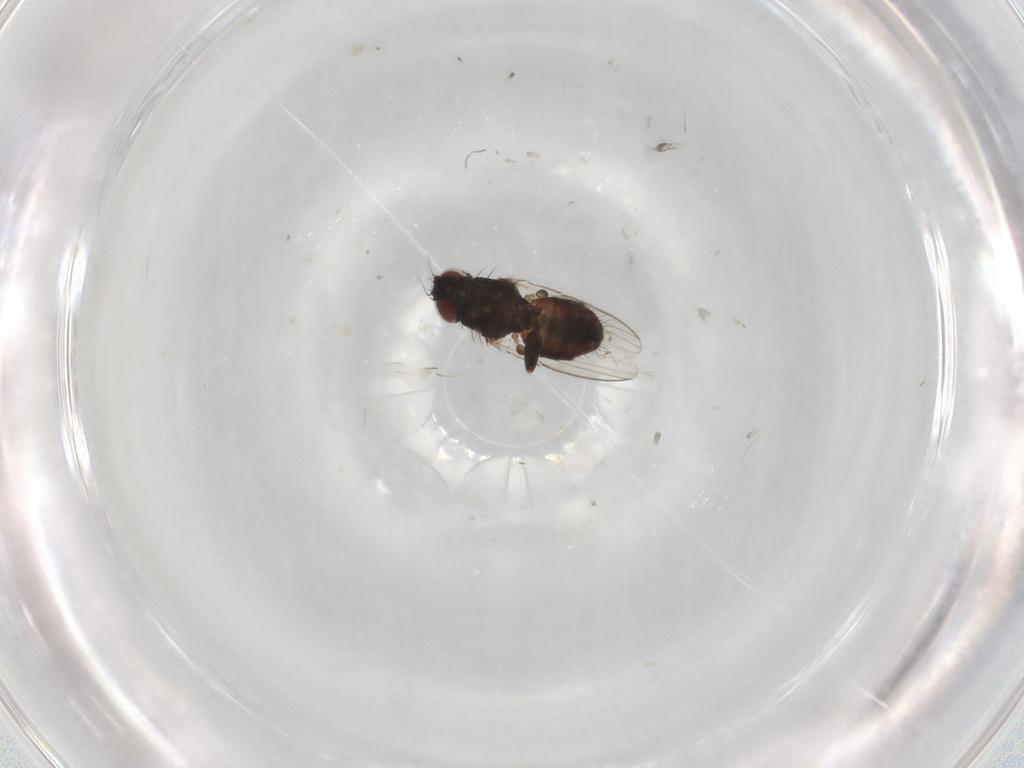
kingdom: Animalia
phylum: Arthropoda
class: Insecta
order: Diptera
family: Milichiidae
